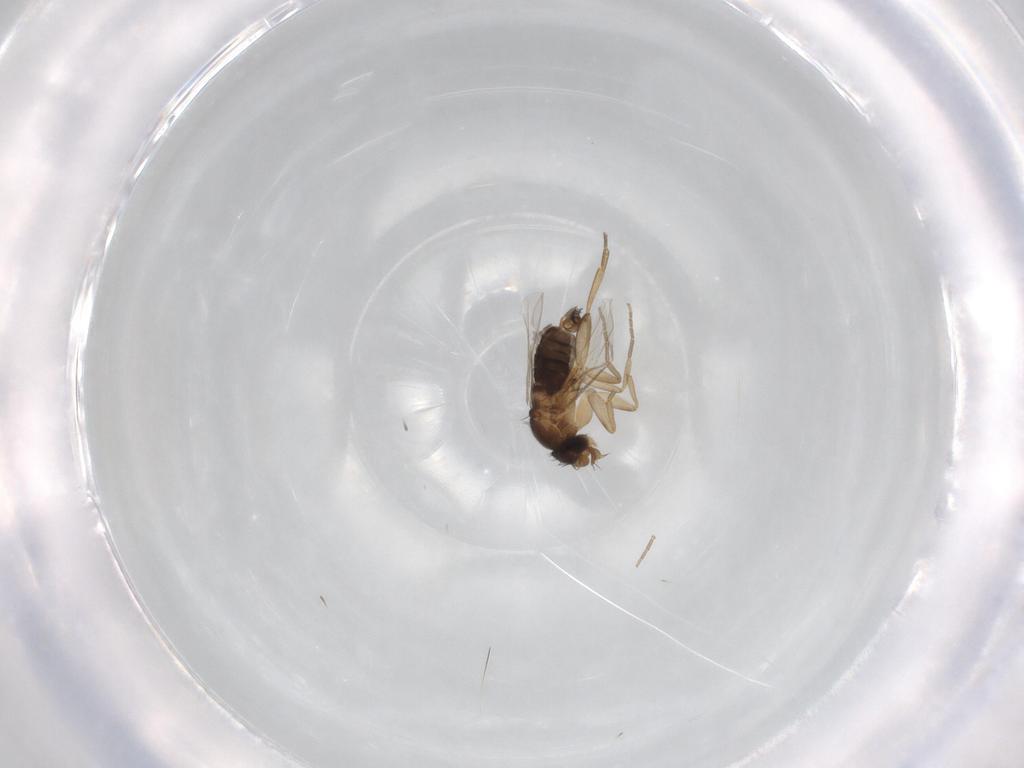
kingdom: Animalia
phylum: Arthropoda
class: Insecta
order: Diptera
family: Phoridae
